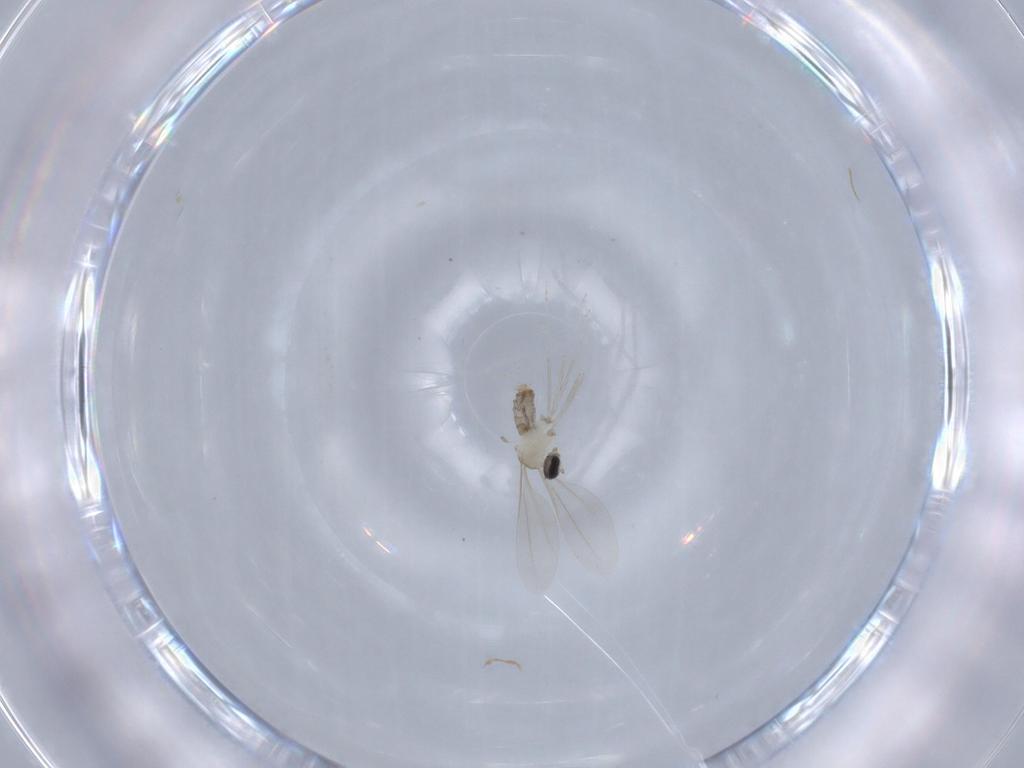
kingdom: Animalia
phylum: Arthropoda
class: Insecta
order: Diptera
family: Cecidomyiidae
